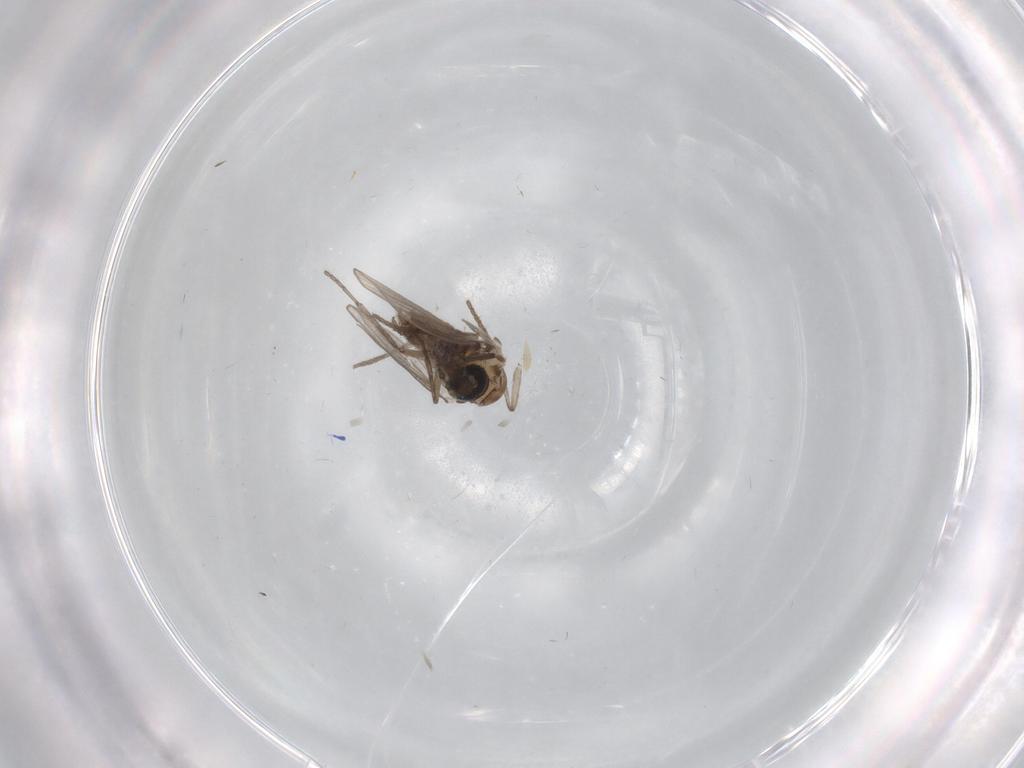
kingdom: Animalia
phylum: Arthropoda
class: Insecta
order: Diptera
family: Psychodidae
